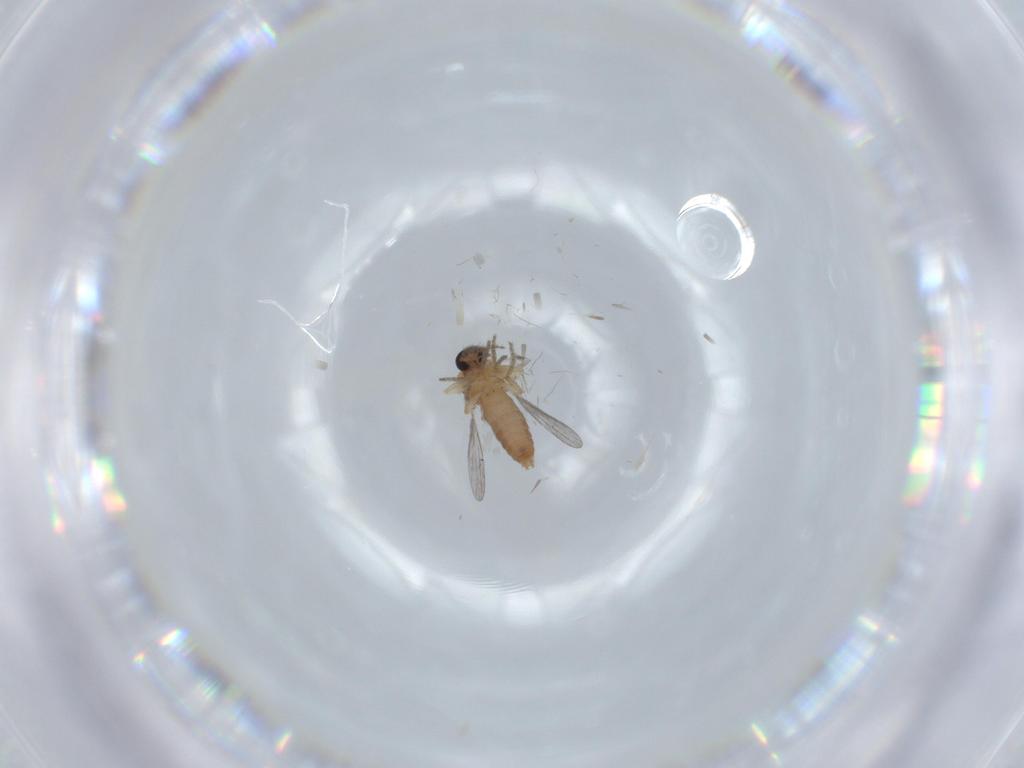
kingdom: Animalia
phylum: Arthropoda
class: Insecta
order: Diptera
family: Ceratopogonidae
